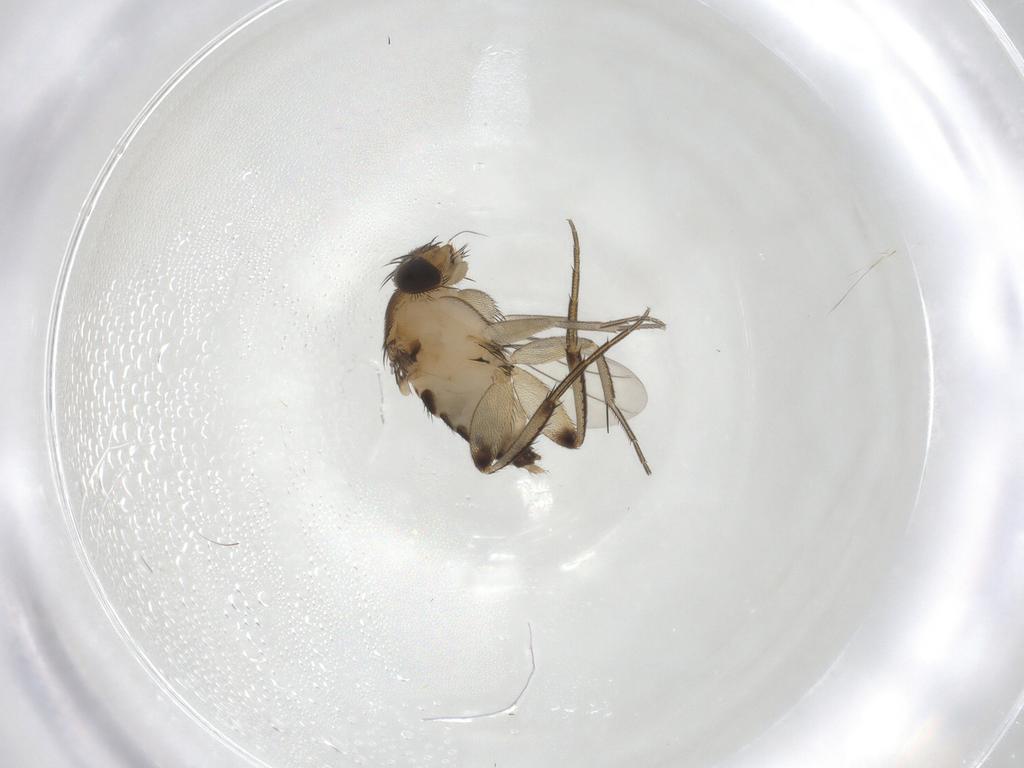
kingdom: Animalia
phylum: Arthropoda
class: Insecta
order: Diptera
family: Phoridae
